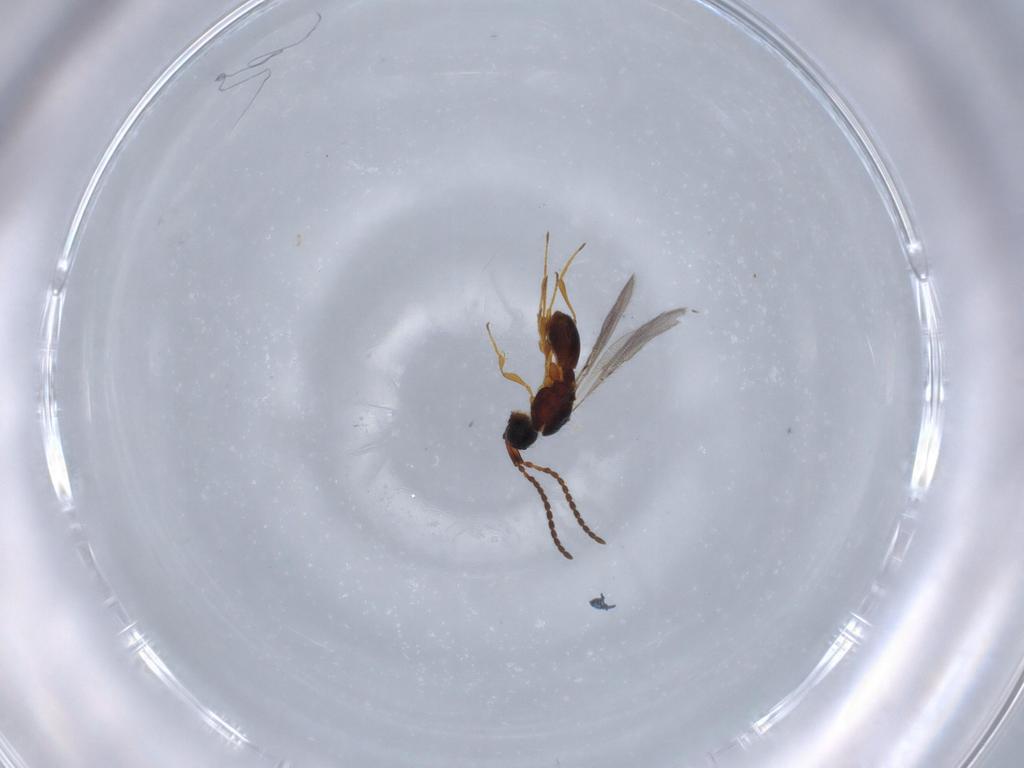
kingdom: Animalia
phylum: Arthropoda
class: Insecta
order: Hymenoptera
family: Diapriidae
